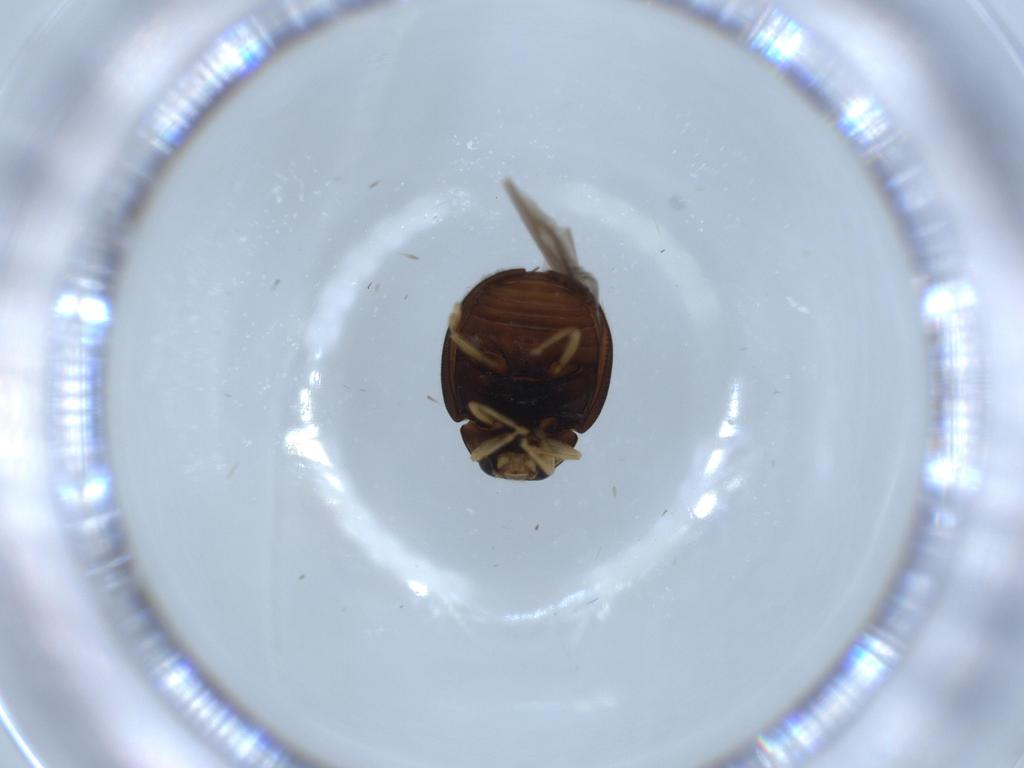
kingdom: Animalia
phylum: Arthropoda
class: Insecta
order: Coleoptera
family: Coccinellidae
